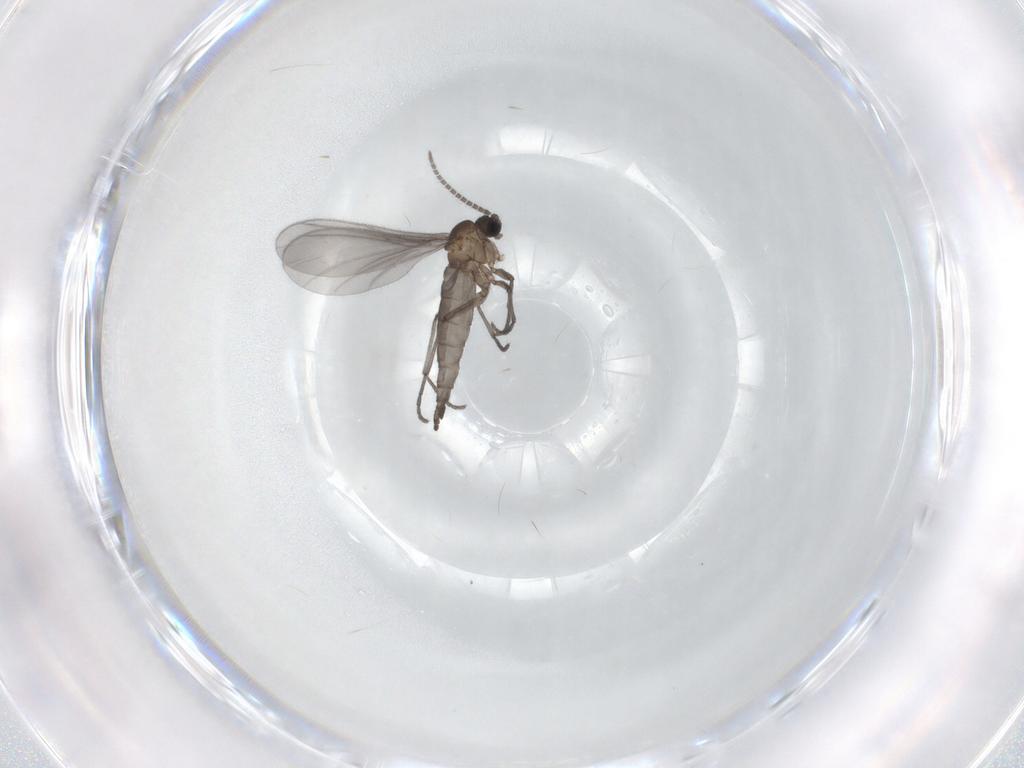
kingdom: Animalia
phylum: Arthropoda
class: Insecta
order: Diptera
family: Sciaridae
